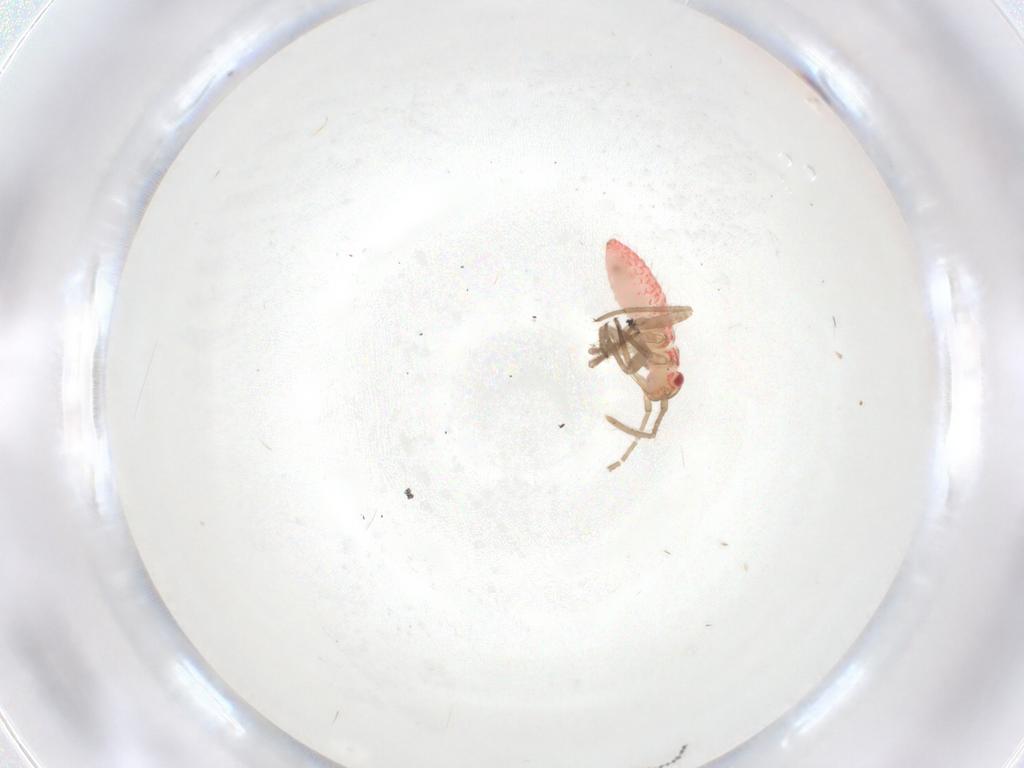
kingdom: Animalia
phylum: Arthropoda
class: Insecta
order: Hemiptera
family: Miridae
